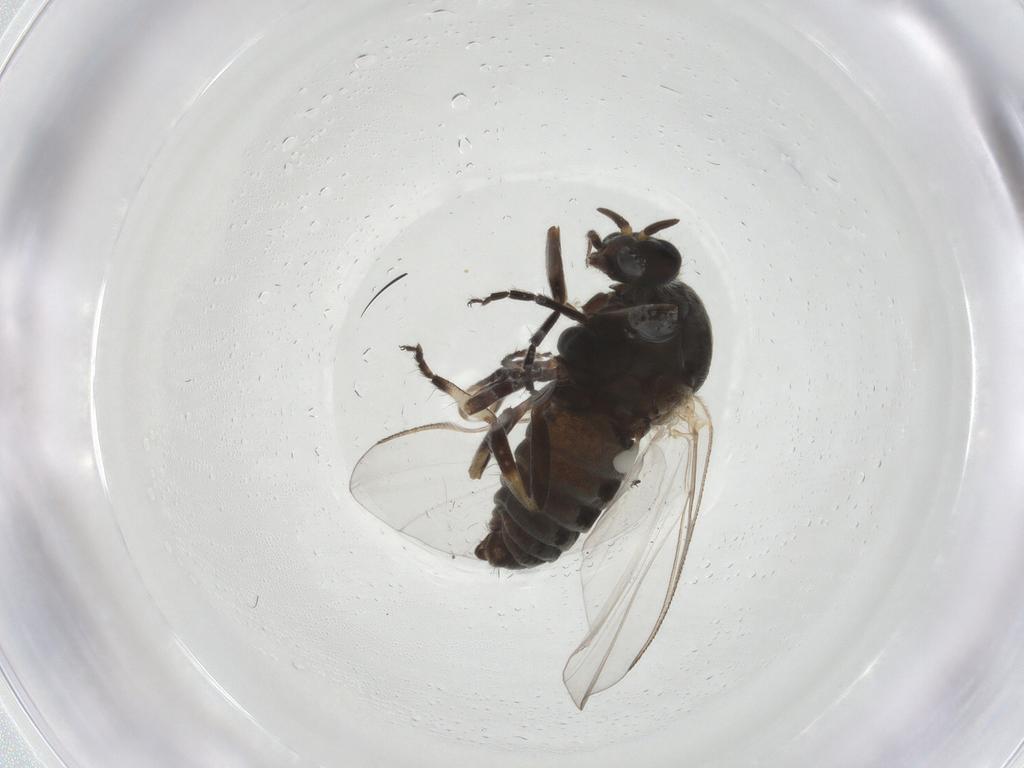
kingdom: Animalia
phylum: Arthropoda
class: Insecta
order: Diptera
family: Simuliidae
